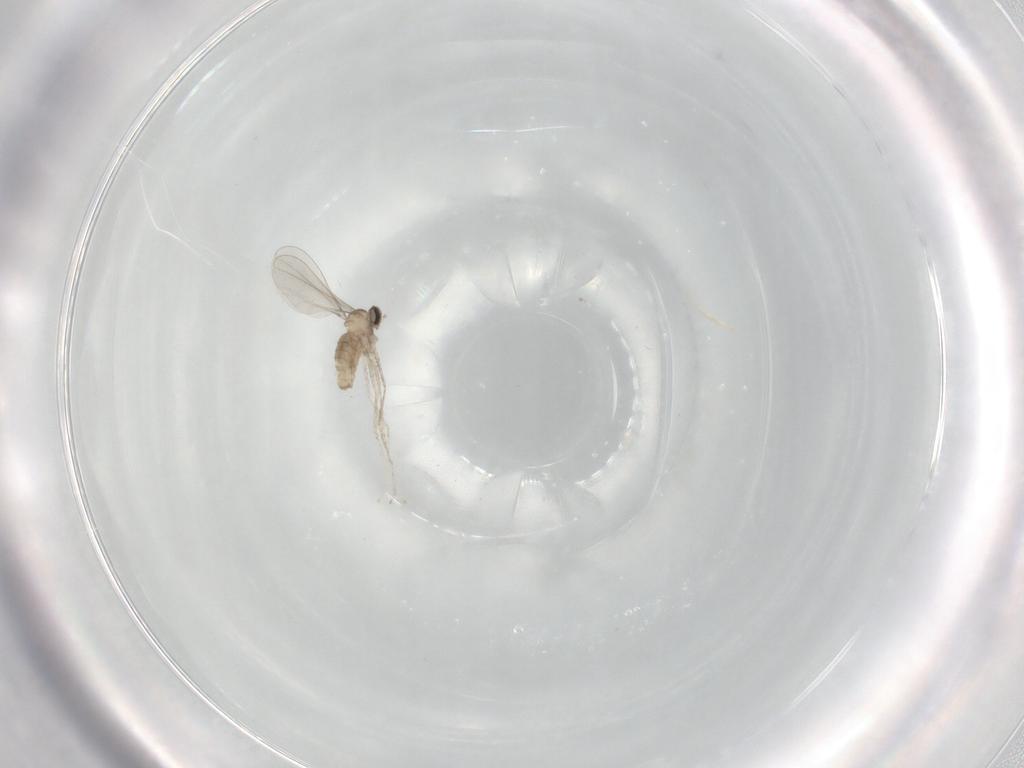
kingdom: Animalia
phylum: Arthropoda
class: Insecta
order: Diptera
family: Cecidomyiidae
